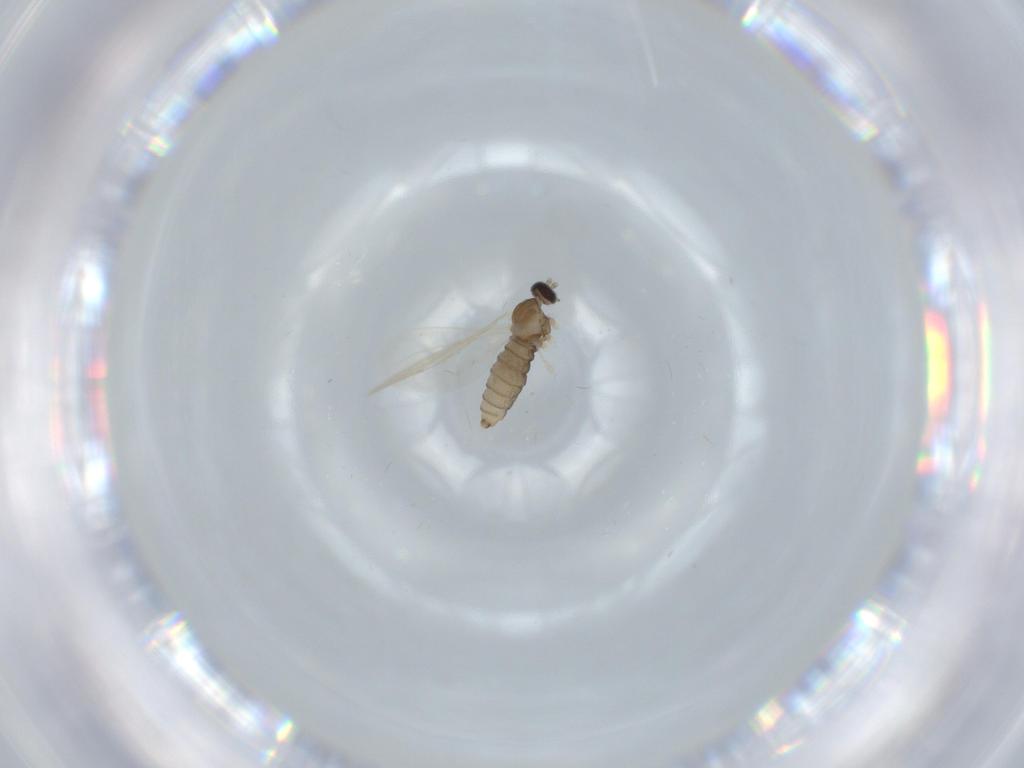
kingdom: Animalia
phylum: Arthropoda
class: Insecta
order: Diptera
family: Cecidomyiidae
